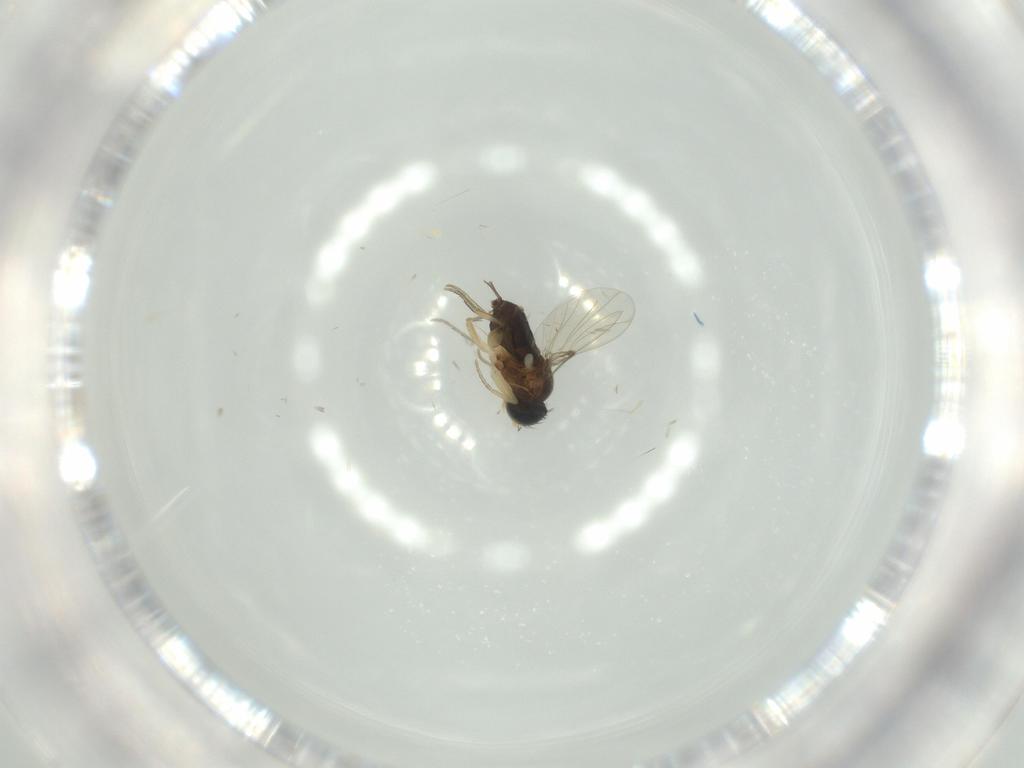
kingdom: Animalia
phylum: Arthropoda
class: Insecta
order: Diptera
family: Phoridae
